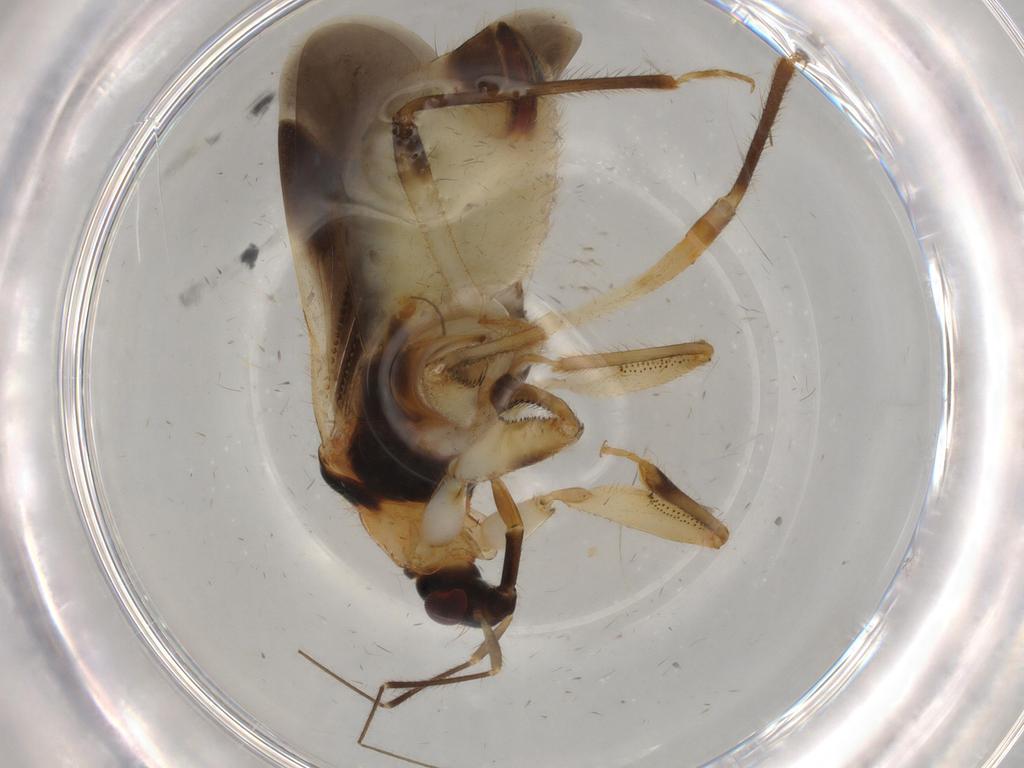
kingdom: Animalia
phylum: Arthropoda
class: Insecta
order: Hemiptera
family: Nabidae
